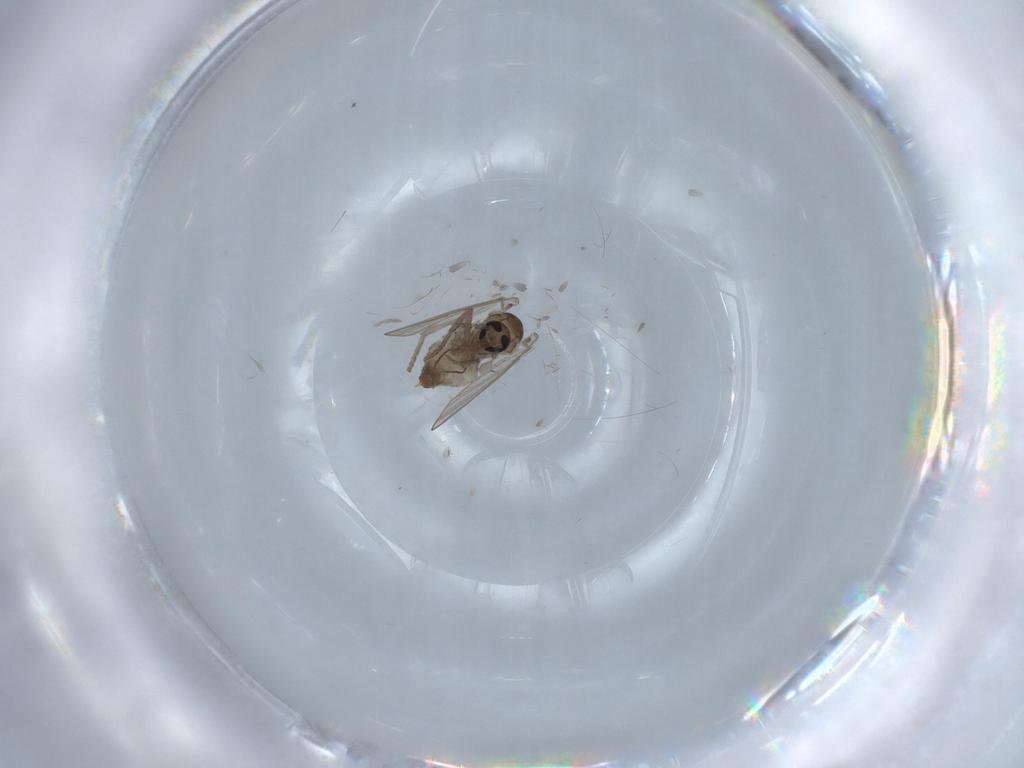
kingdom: Animalia
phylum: Arthropoda
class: Insecta
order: Diptera
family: Psychodidae
